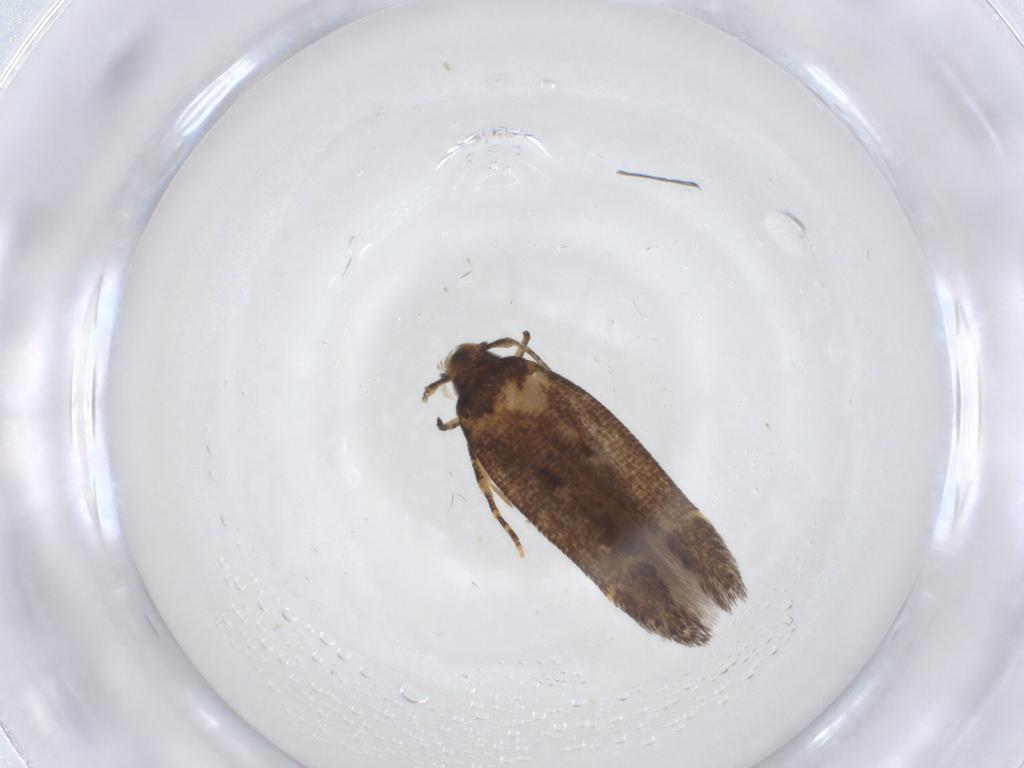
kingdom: Animalia
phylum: Arthropoda
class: Insecta
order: Lepidoptera
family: Cosmopterigidae
